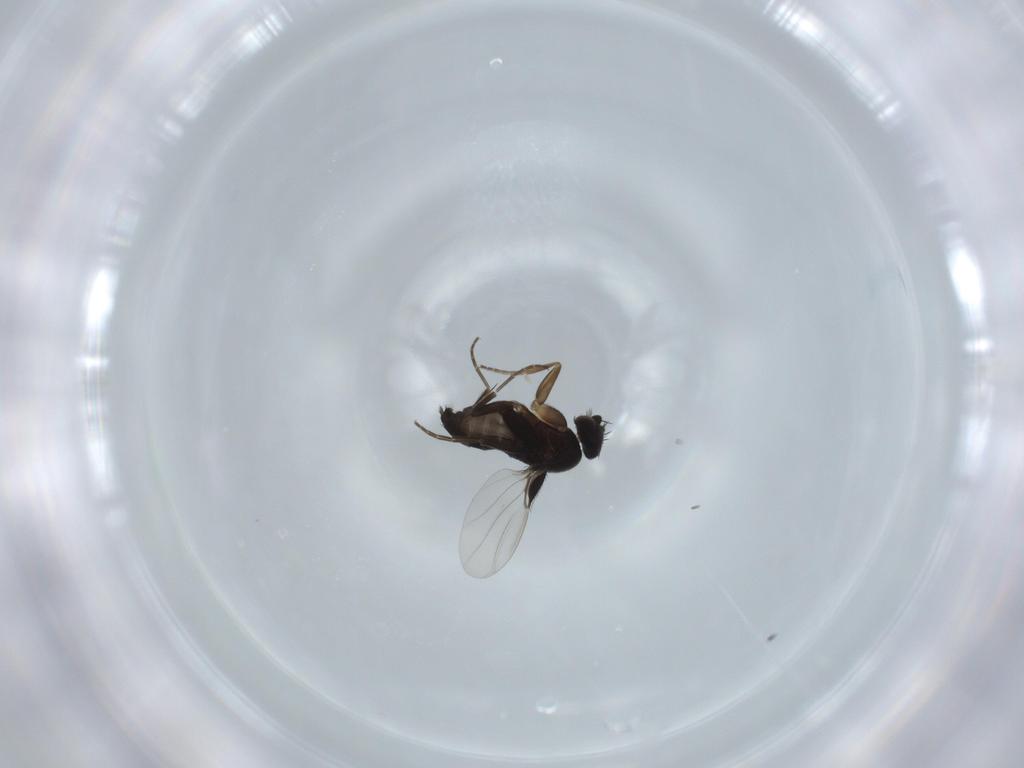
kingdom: Animalia
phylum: Arthropoda
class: Insecta
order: Diptera
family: Phoridae
